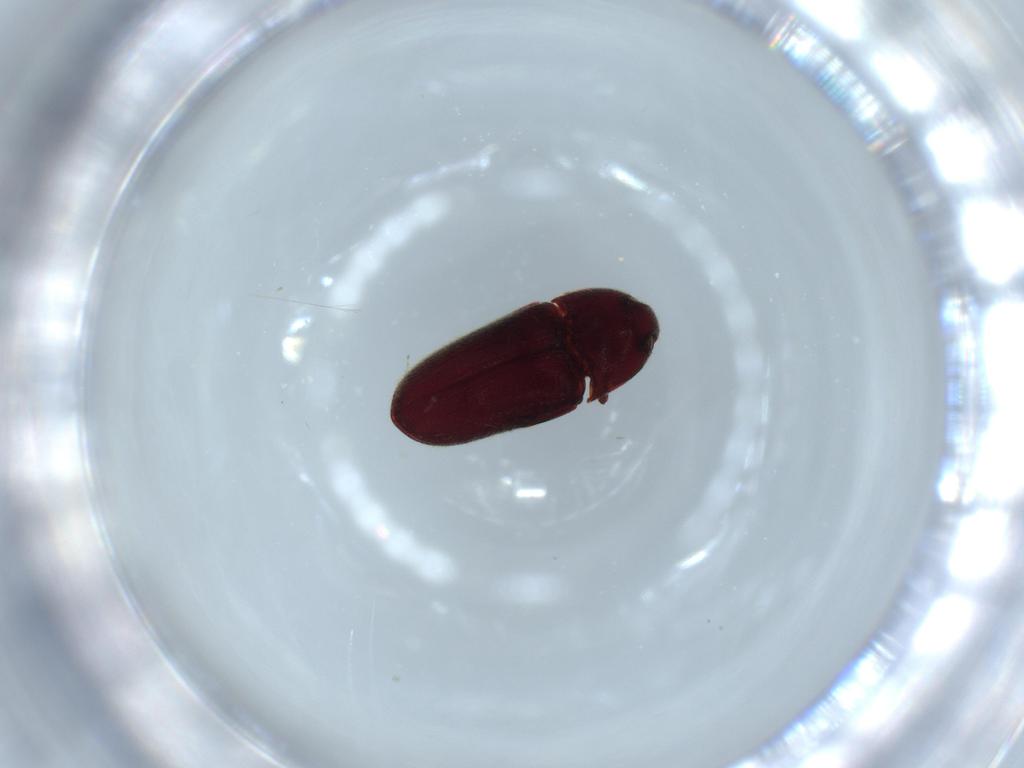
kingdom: Animalia
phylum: Arthropoda
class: Insecta
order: Coleoptera
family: Throscidae
